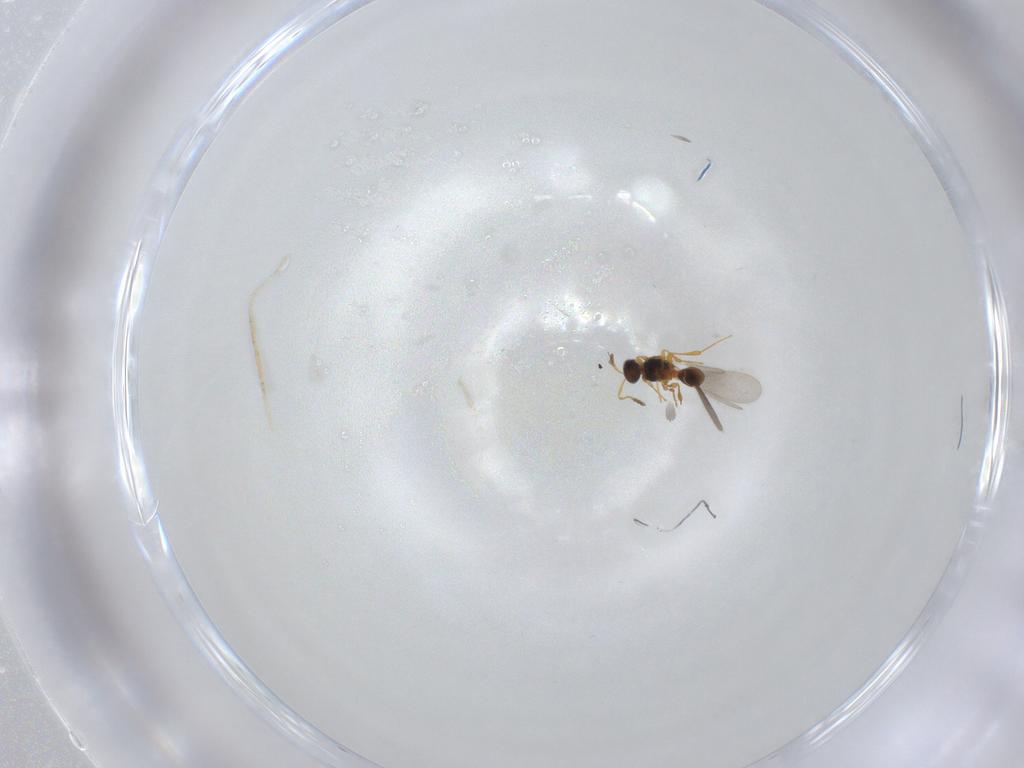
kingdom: Animalia
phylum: Arthropoda
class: Insecta
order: Hymenoptera
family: Platygastridae
